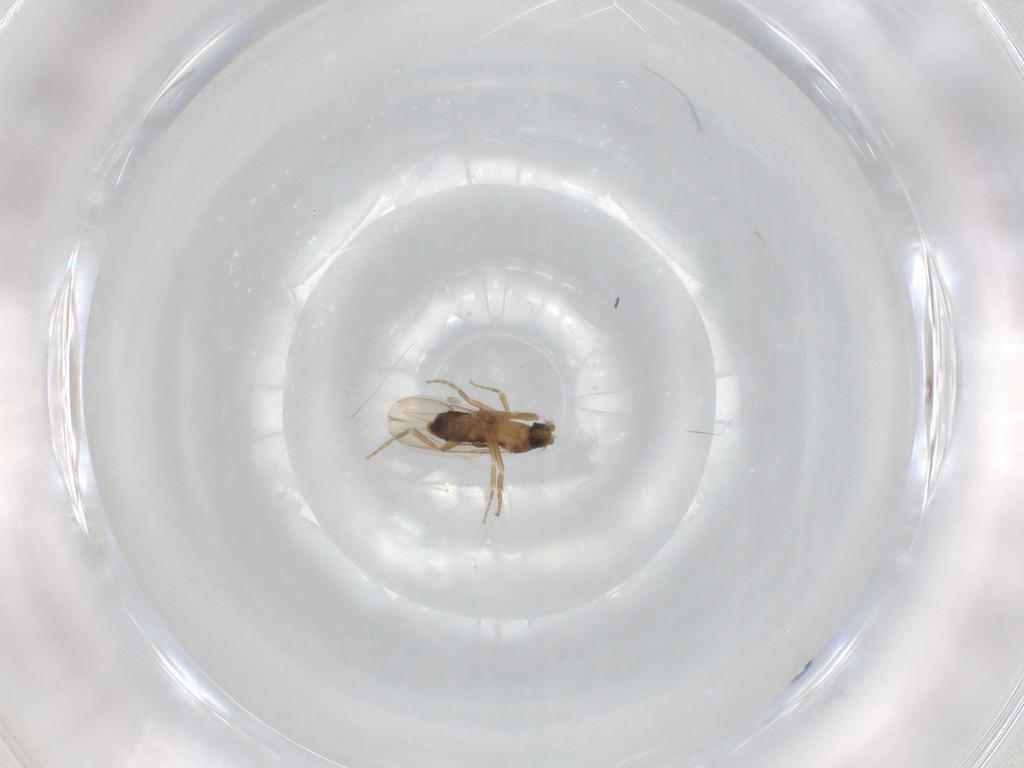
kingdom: Animalia
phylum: Arthropoda
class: Insecta
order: Diptera
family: Phoridae
